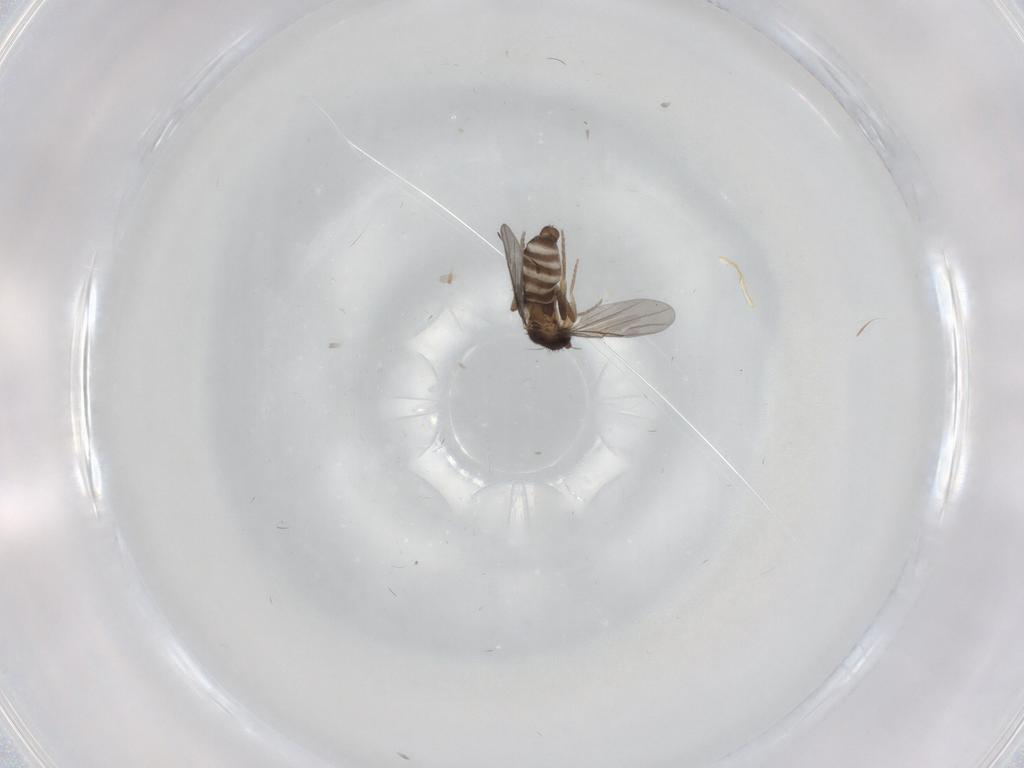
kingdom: Animalia
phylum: Arthropoda
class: Insecta
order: Diptera
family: Cecidomyiidae
